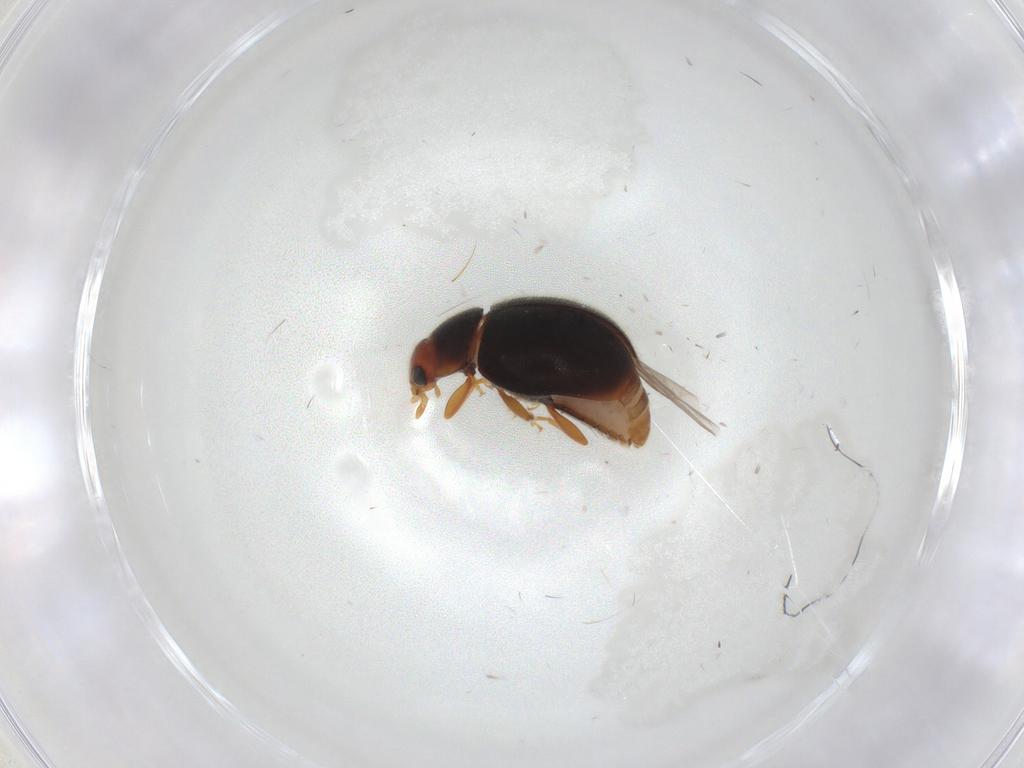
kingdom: Animalia
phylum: Arthropoda
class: Insecta
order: Coleoptera
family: Coccinellidae
